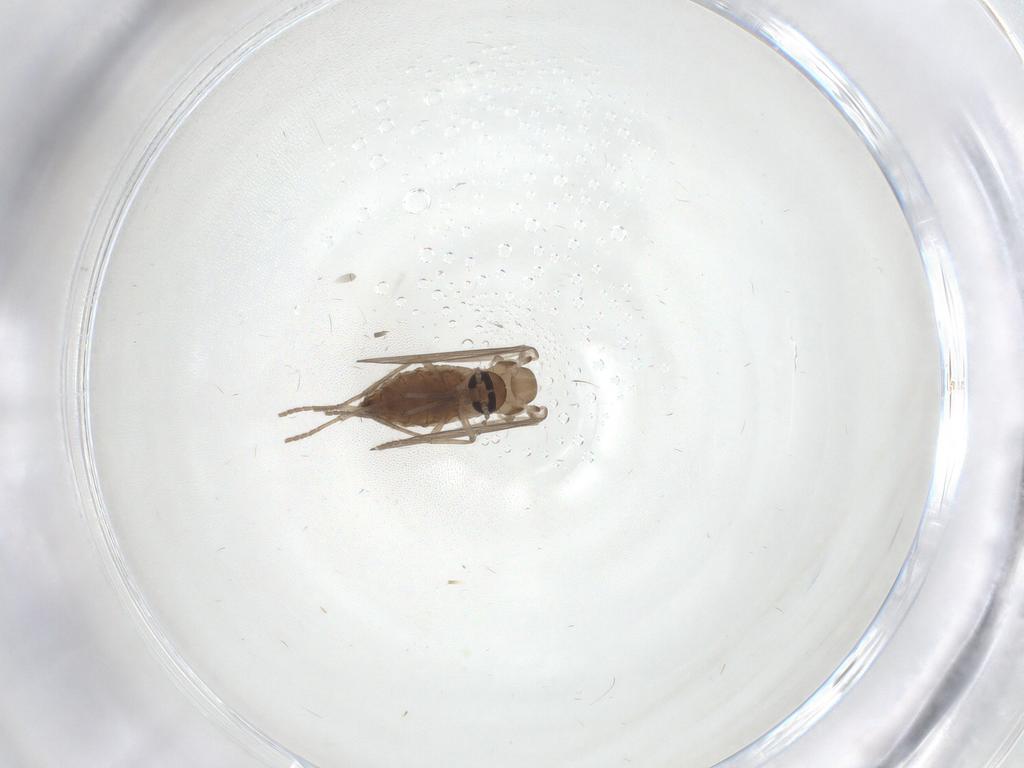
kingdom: Animalia
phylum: Arthropoda
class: Insecta
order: Diptera
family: Psychodidae
